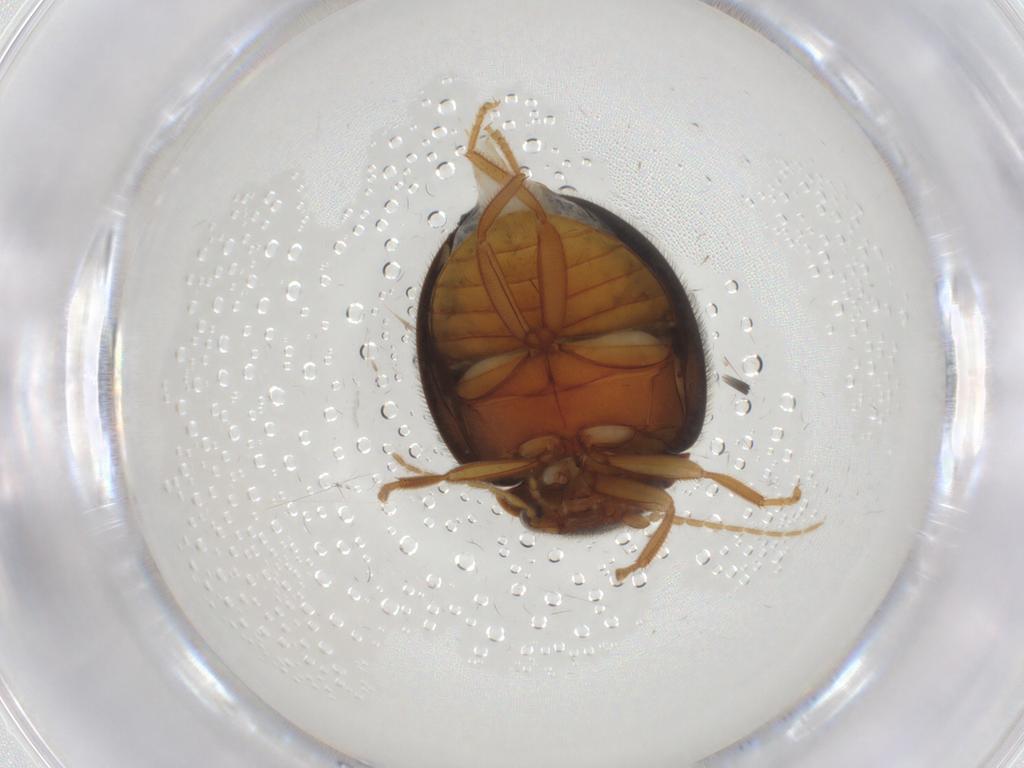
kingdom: Animalia
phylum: Arthropoda
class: Insecta
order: Coleoptera
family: Scirtidae
